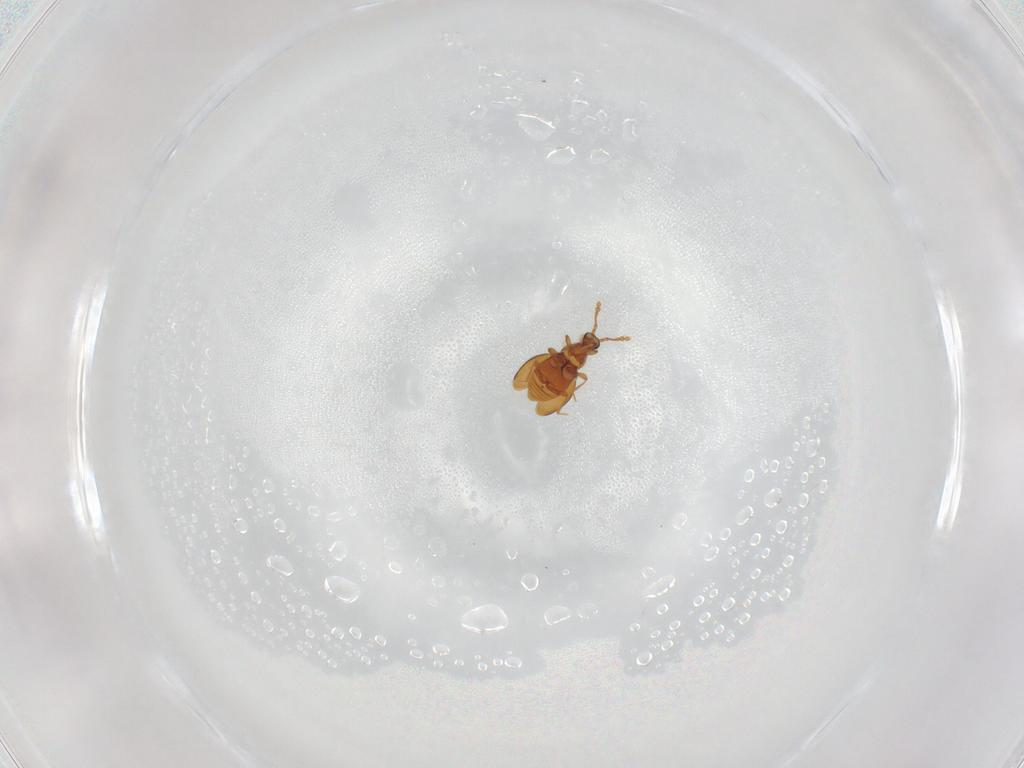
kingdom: Animalia
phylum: Arthropoda
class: Insecta
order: Coleoptera
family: Staphylinidae
